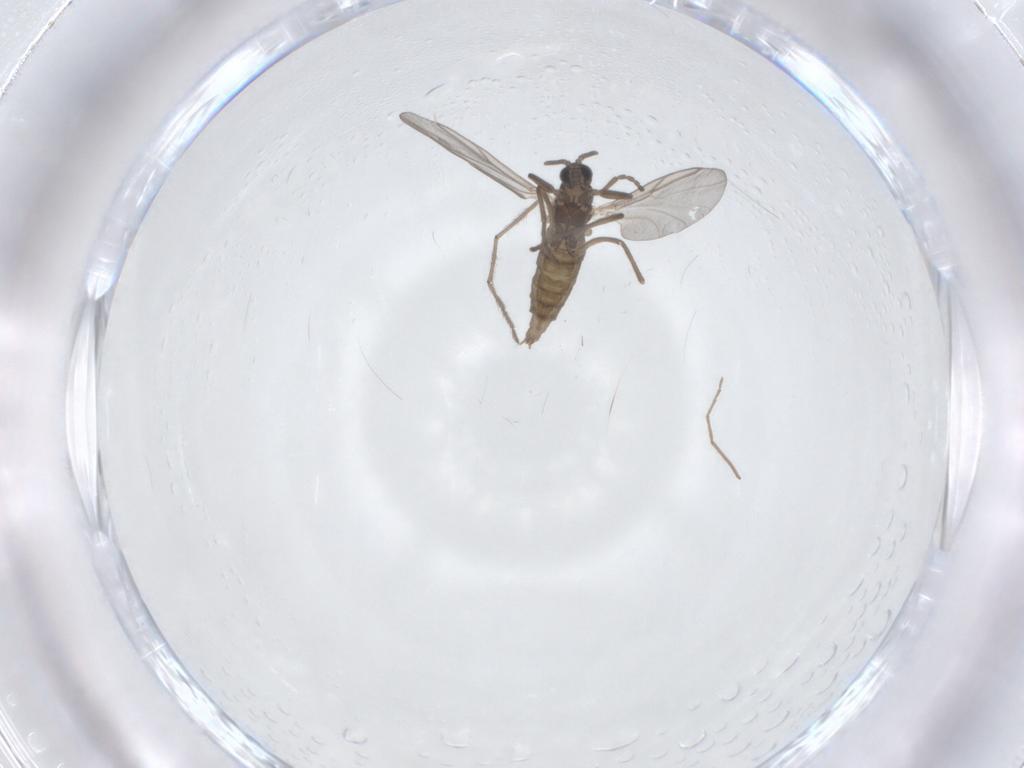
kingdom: Animalia
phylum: Arthropoda
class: Insecta
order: Diptera
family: Cecidomyiidae
